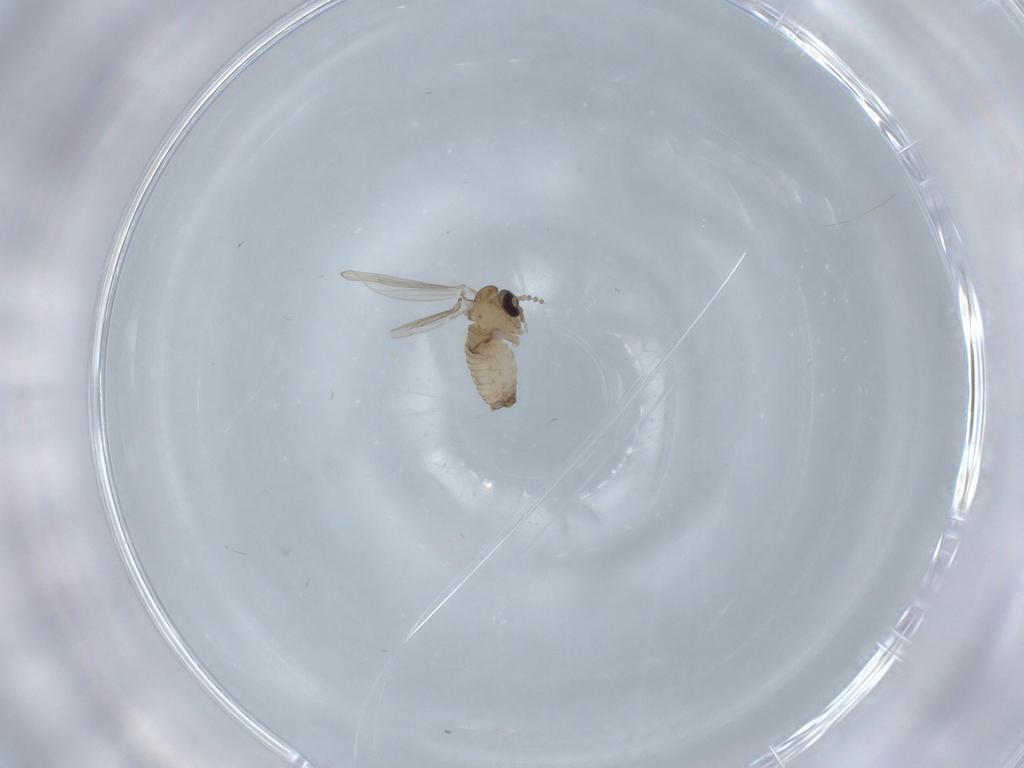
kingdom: Animalia
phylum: Arthropoda
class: Insecta
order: Diptera
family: Psychodidae
